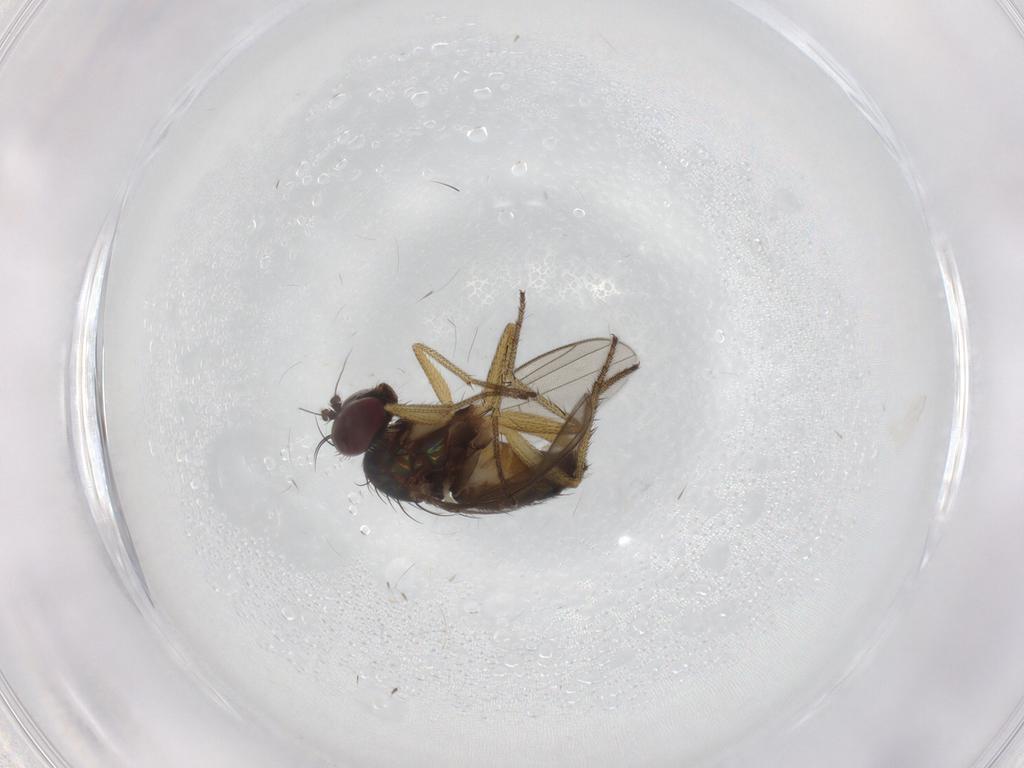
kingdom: Animalia
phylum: Arthropoda
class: Insecta
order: Diptera
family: Dolichopodidae
